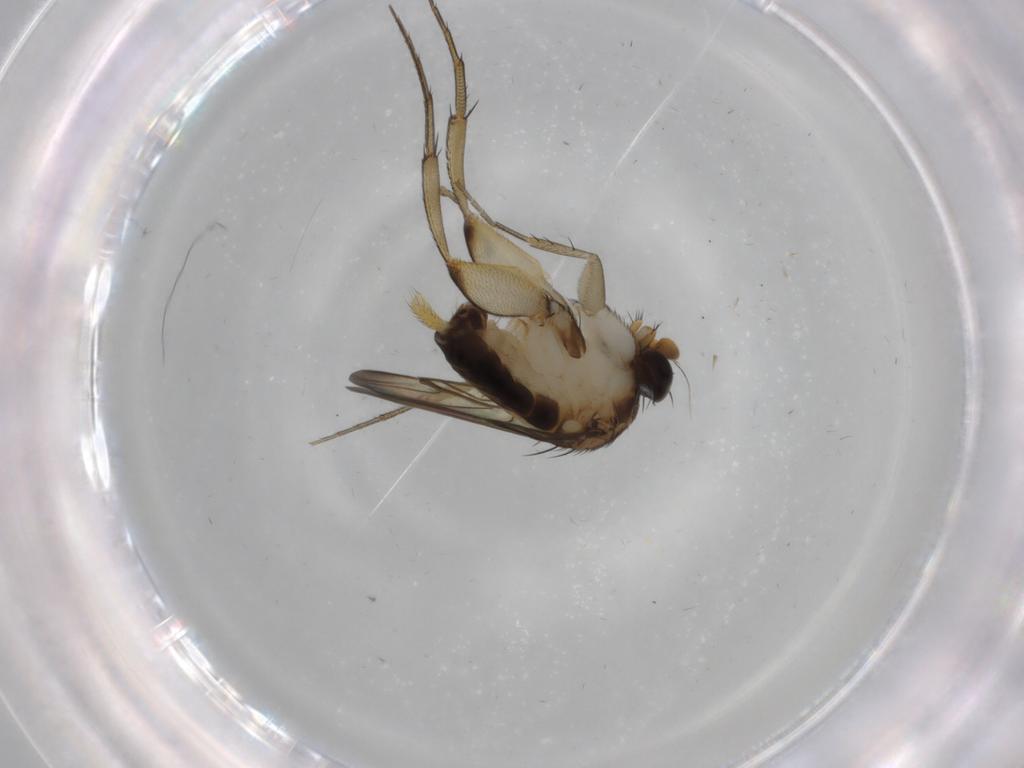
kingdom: Animalia
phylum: Arthropoda
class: Insecta
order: Diptera
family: Phoridae
